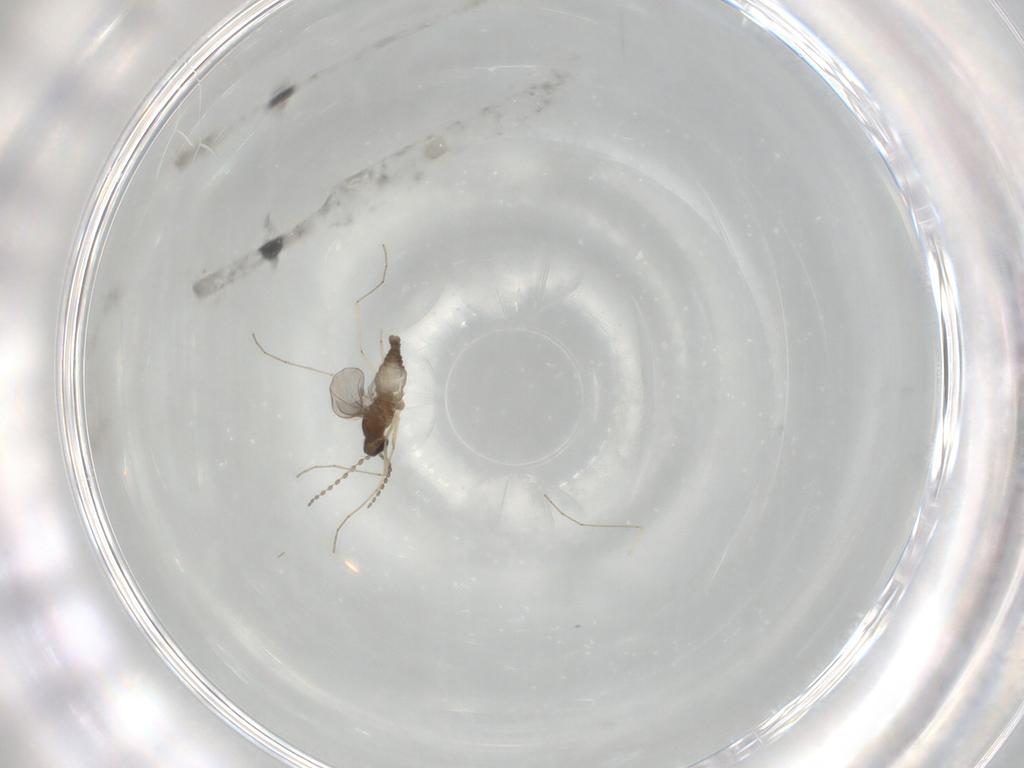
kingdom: Animalia
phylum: Arthropoda
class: Insecta
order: Diptera
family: Cecidomyiidae
